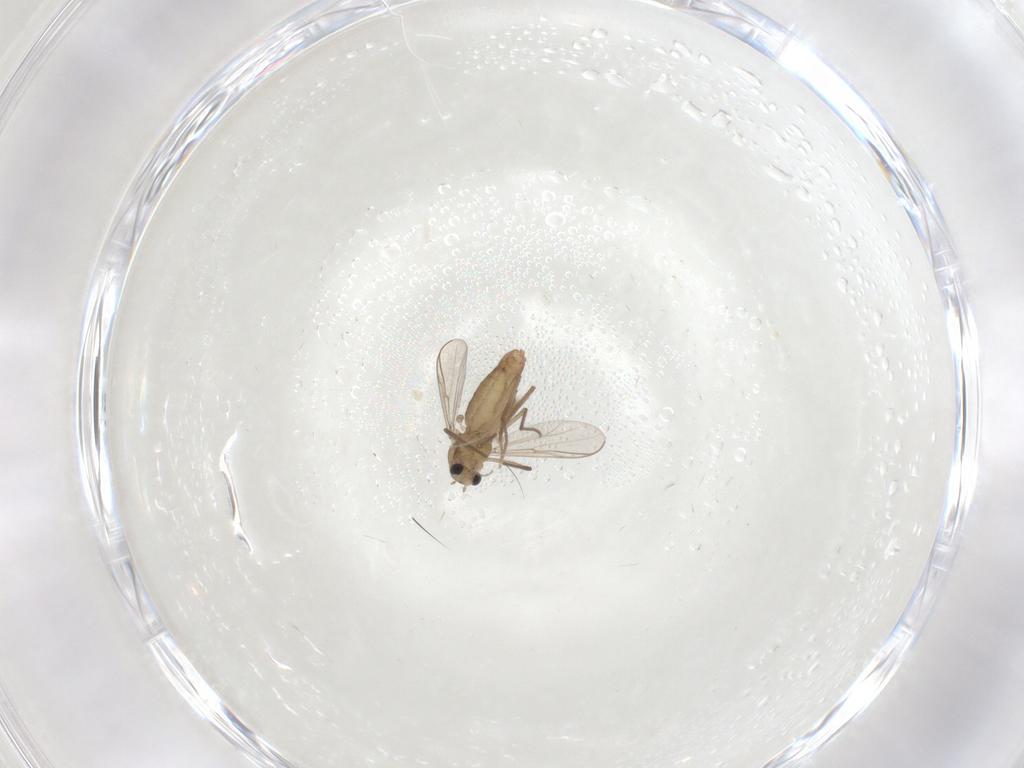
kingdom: Animalia
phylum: Arthropoda
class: Insecta
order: Diptera
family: Chironomidae
